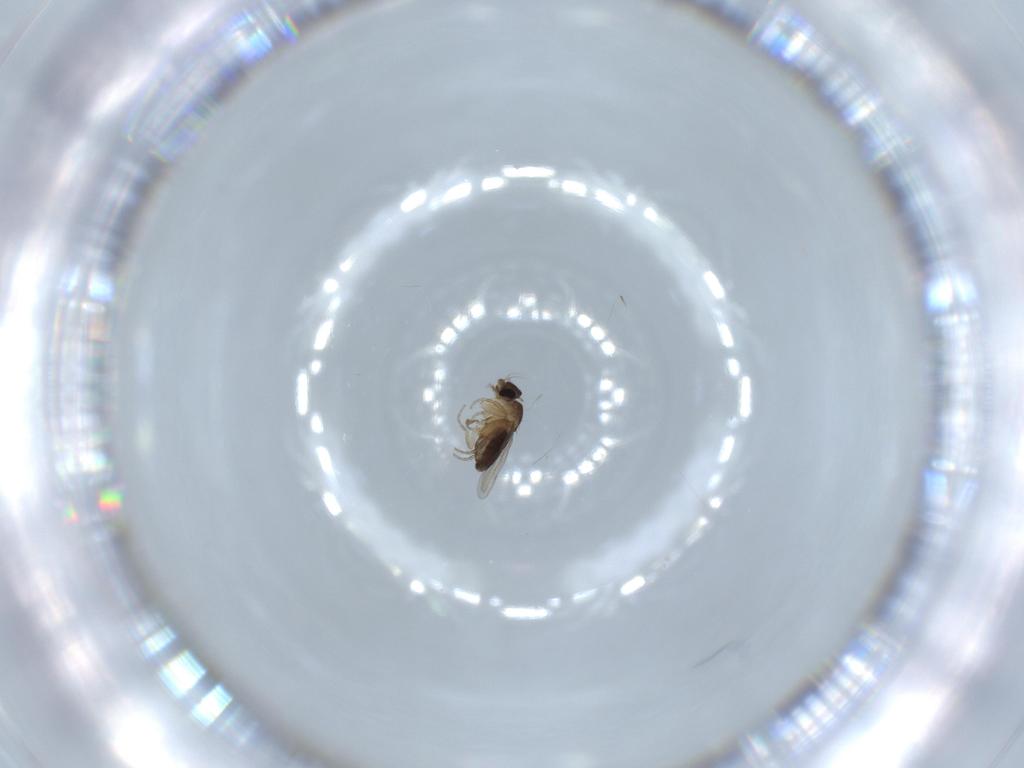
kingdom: Animalia
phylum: Arthropoda
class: Insecta
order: Diptera
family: Phoridae
